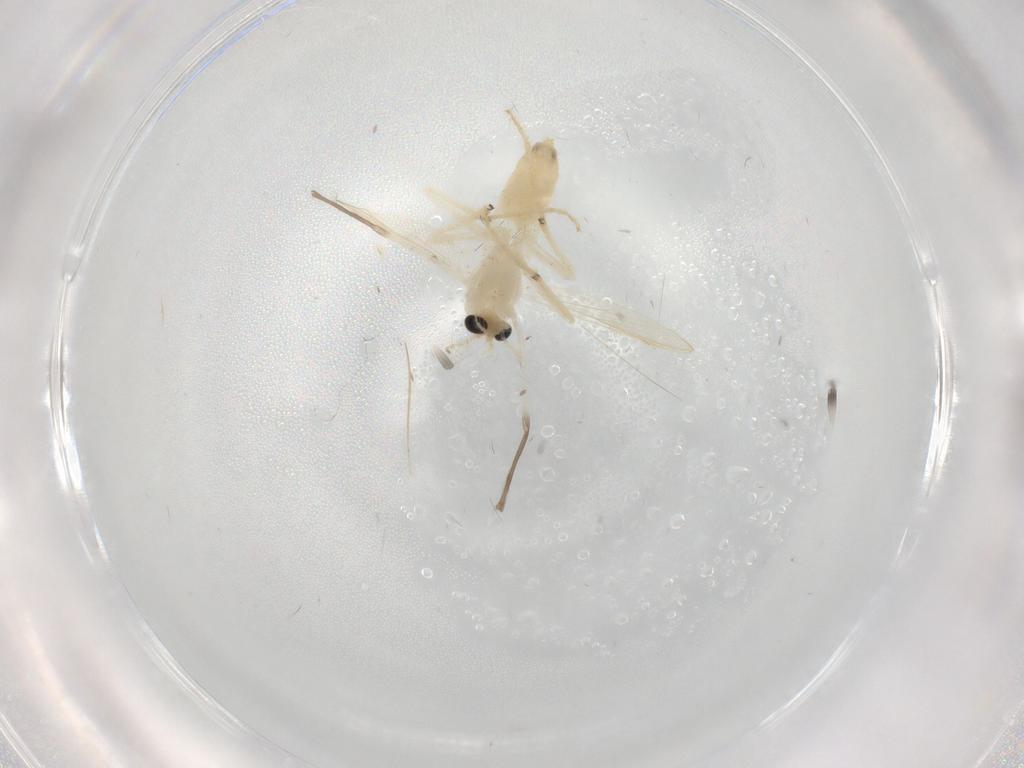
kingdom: Animalia
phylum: Arthropoda
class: Insecta
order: Diptera
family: Chironomidae
